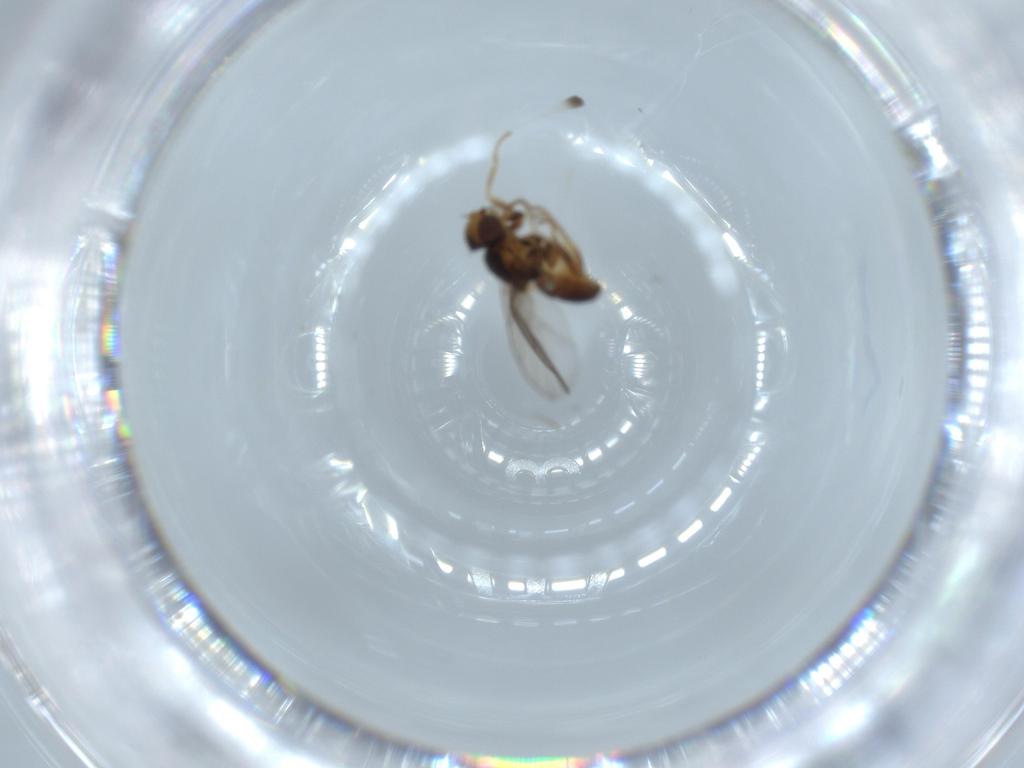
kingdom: Animalia
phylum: Arthropoda
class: Insecta
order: Diptera
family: Chloropidae
